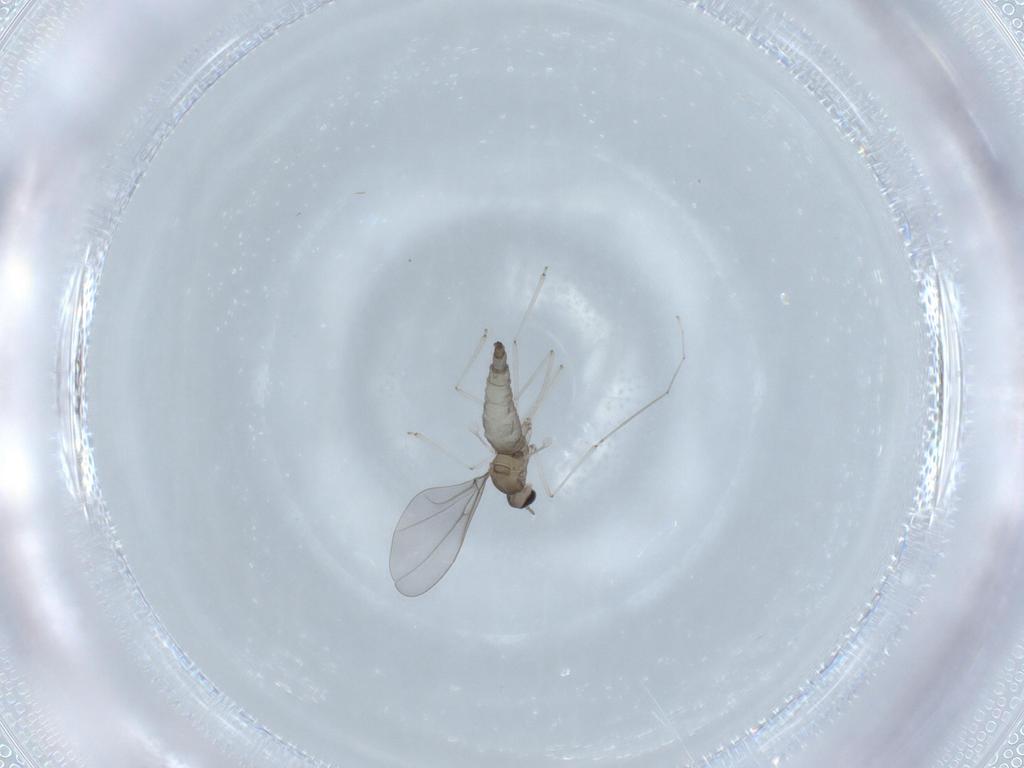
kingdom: Animalia
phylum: Arthropoda
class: Insecta
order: Diptera
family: Cecidomyiidae
